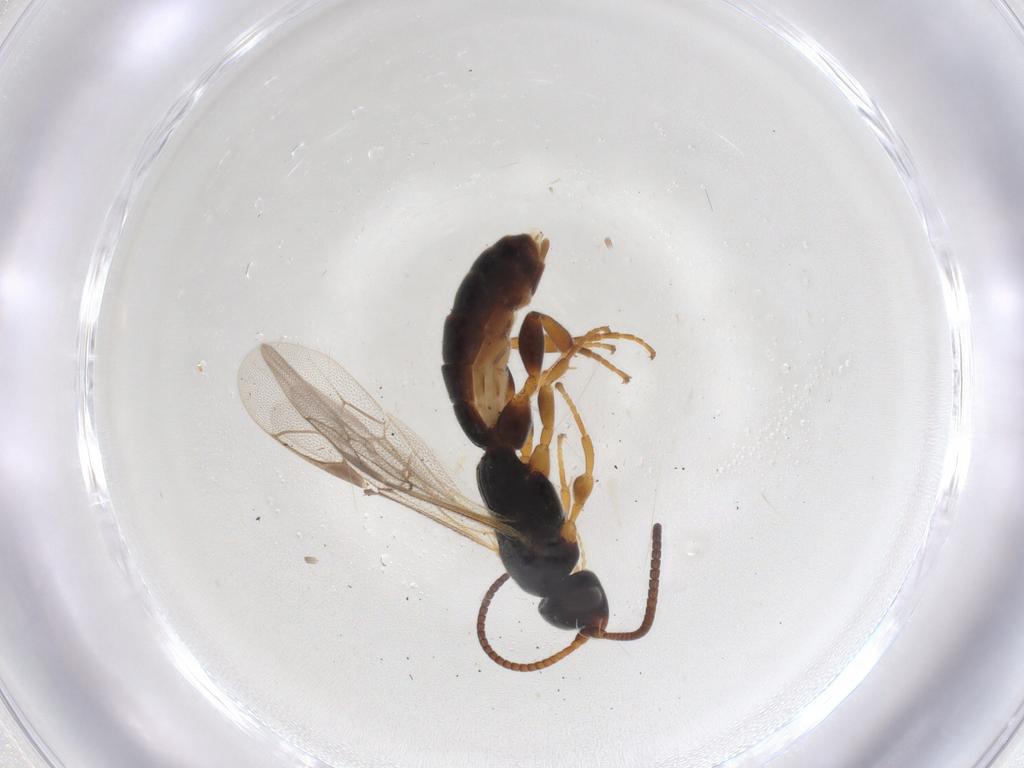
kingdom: Animalia
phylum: Arthropoda
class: Insecta
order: Hymenoptera
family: Ichneumonidae
